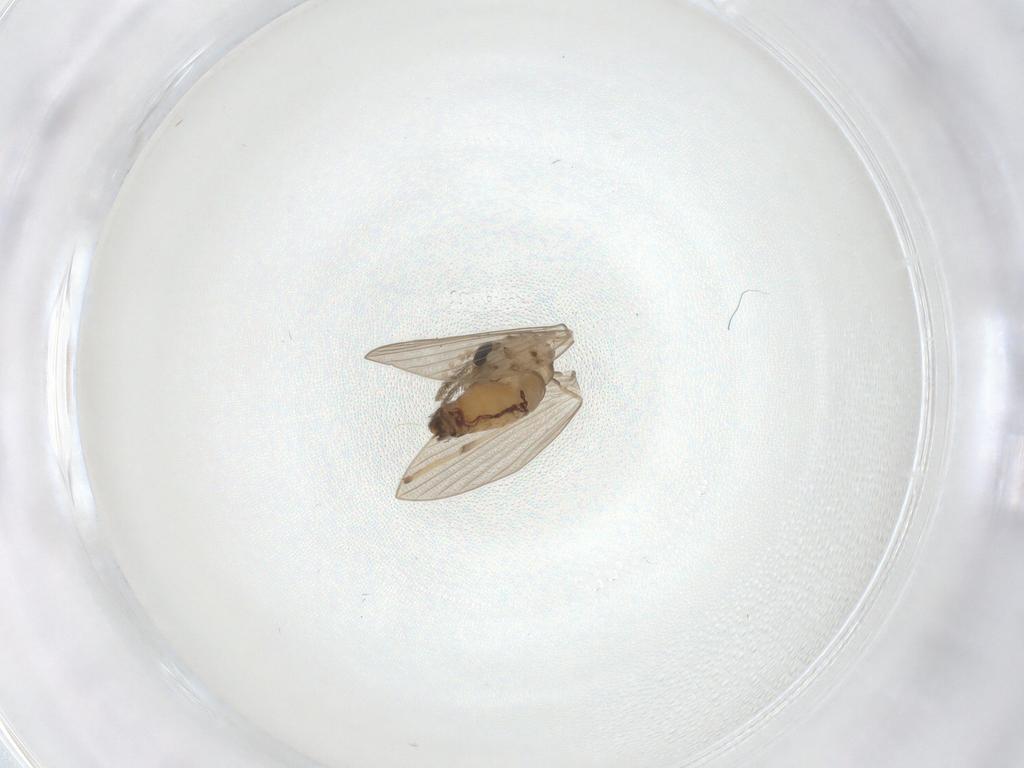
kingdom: Animalia
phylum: Arthropoda
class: Insecta
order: Diptera
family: Psychodidae
